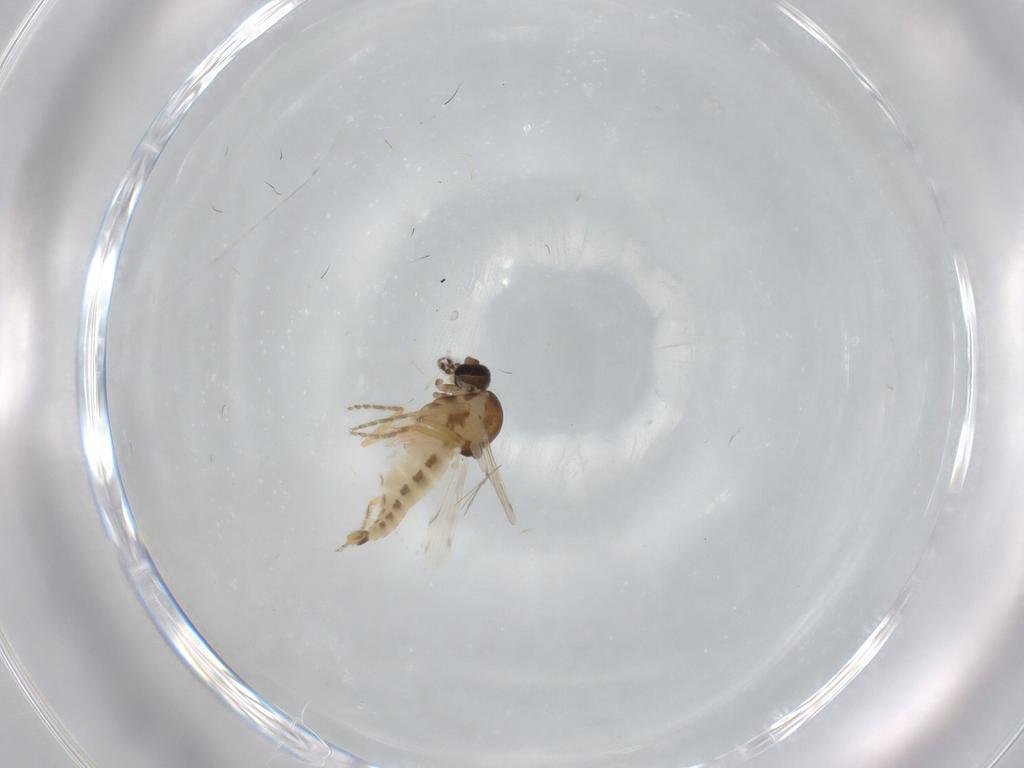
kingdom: Animalia
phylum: Arthropoda
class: Insecta
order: Diptera
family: Ceratopogonidae
